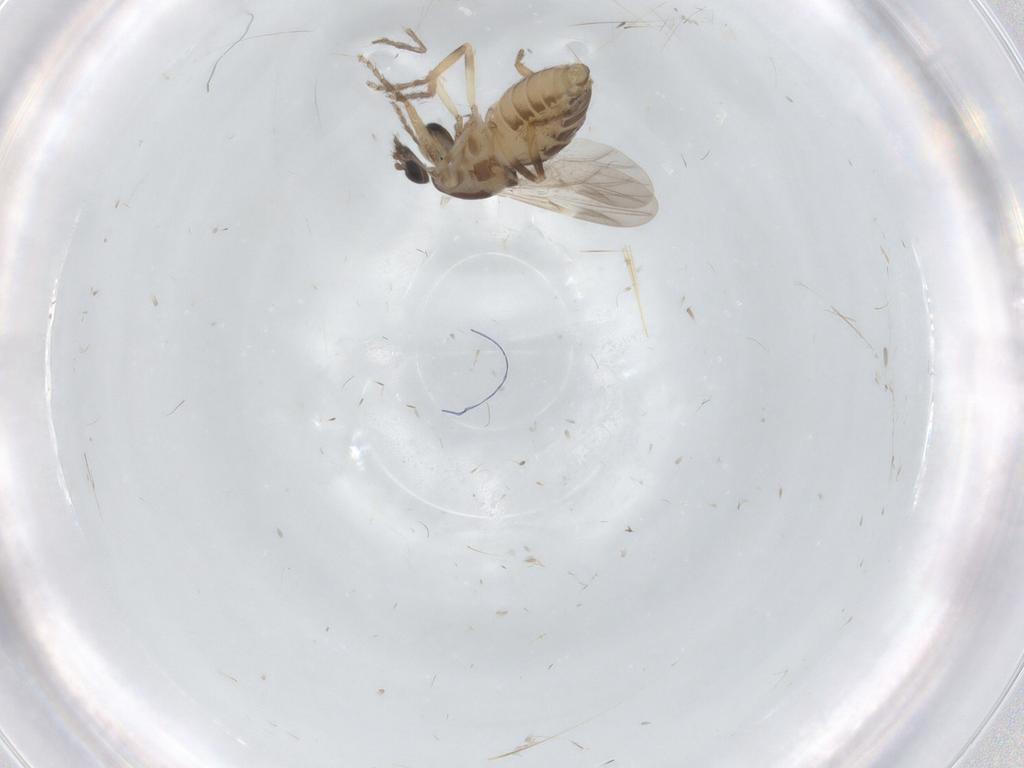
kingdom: Animalia
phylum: Arthropoda
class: Insecta
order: Diptera
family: Ceratopogonidae
